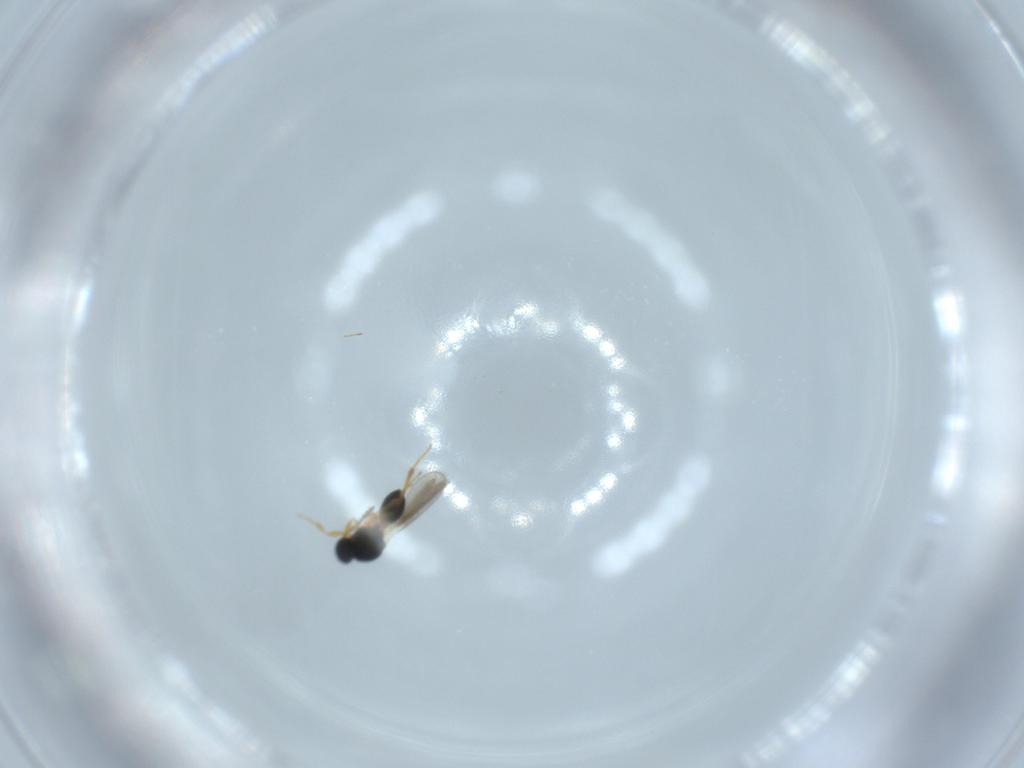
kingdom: Animalia
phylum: Arthropoda
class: Insecta
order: Hymenoptera
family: Platygastridae
